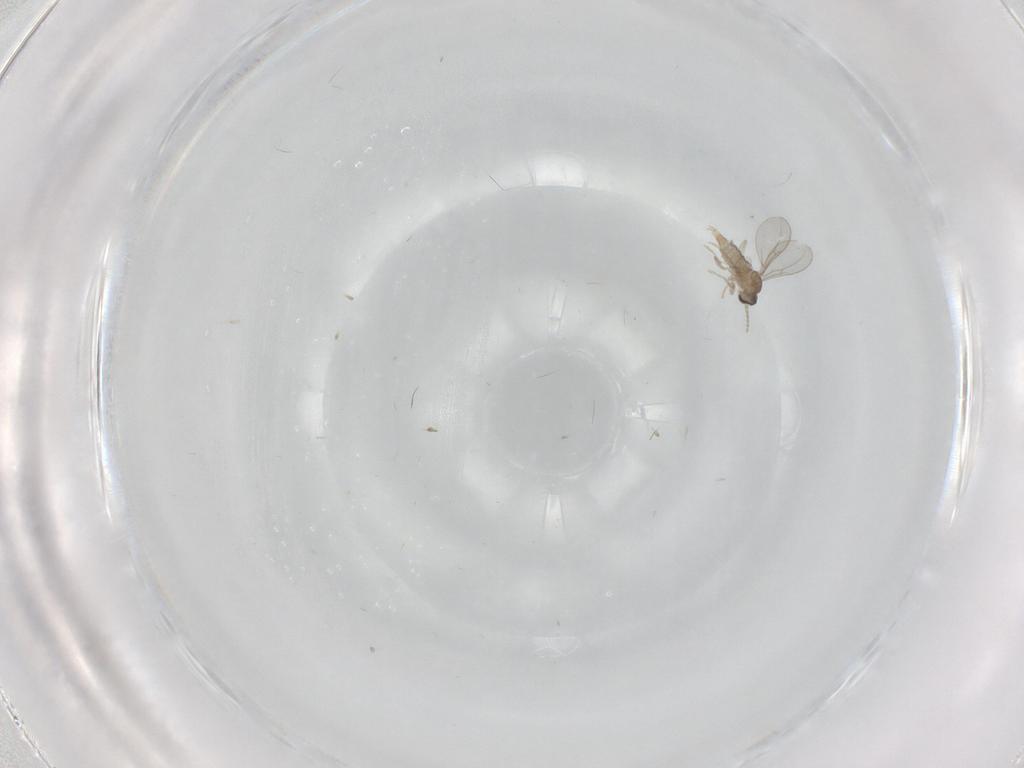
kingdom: Animalia
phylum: Arthropoda
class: Insecta
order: Diptera
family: Cecidomyiidae
